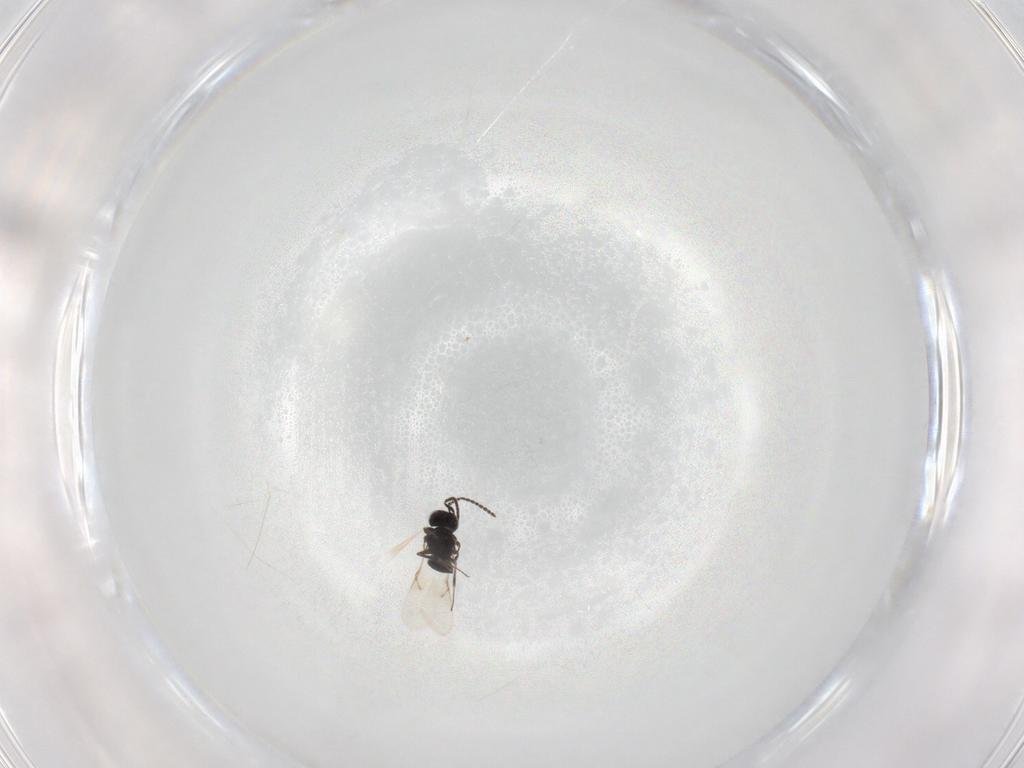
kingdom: Animalia
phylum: Arthropoda
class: Insecta
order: Hymenoptera
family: Scelionidae
